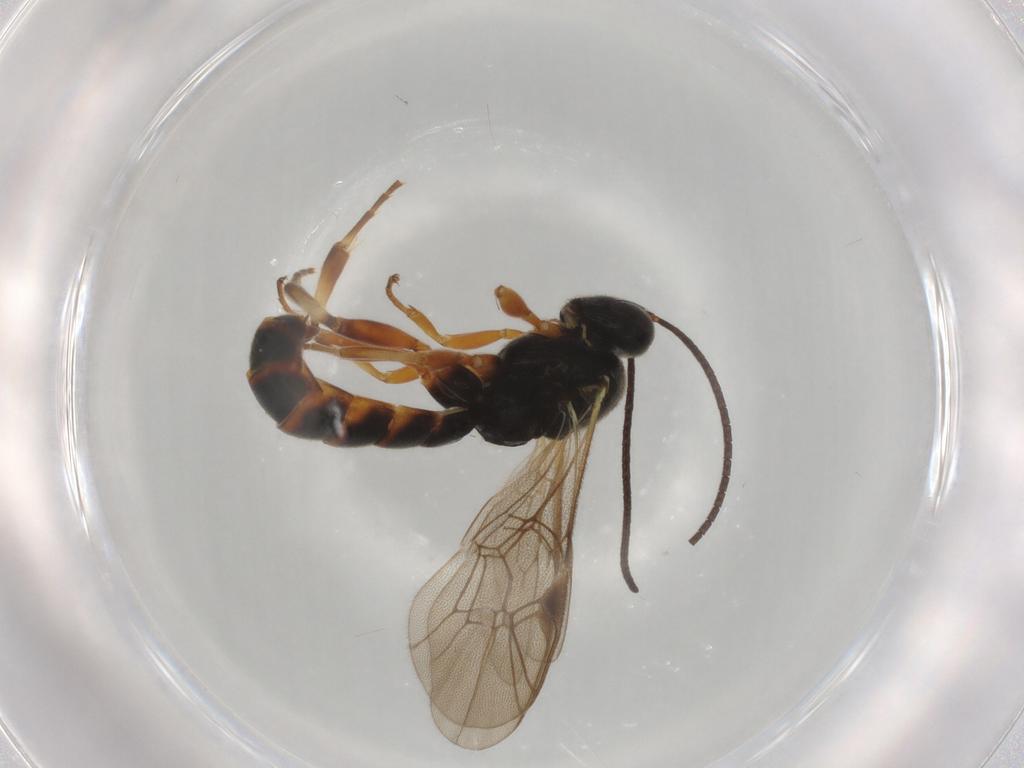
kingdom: Animalia
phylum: Arthropoda
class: Insecta
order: Hymenoptera
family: Ichneumonidae
